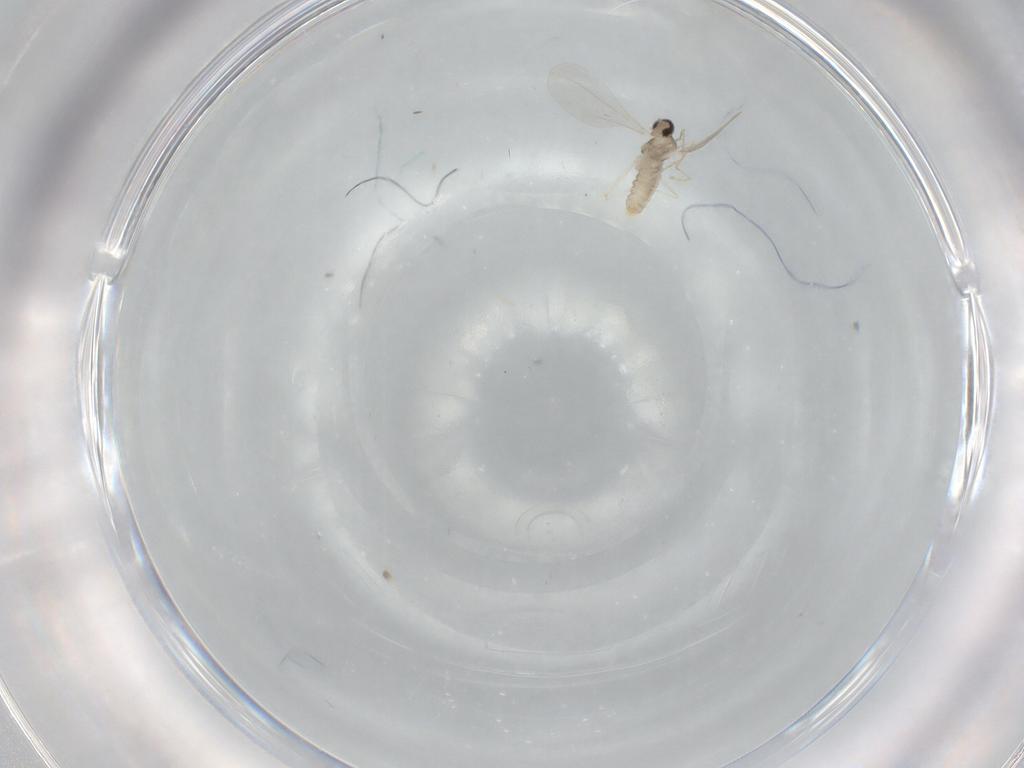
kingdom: Animalia
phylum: Arthropoda
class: Insecta
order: Diptera
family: Cecidomyiidae
